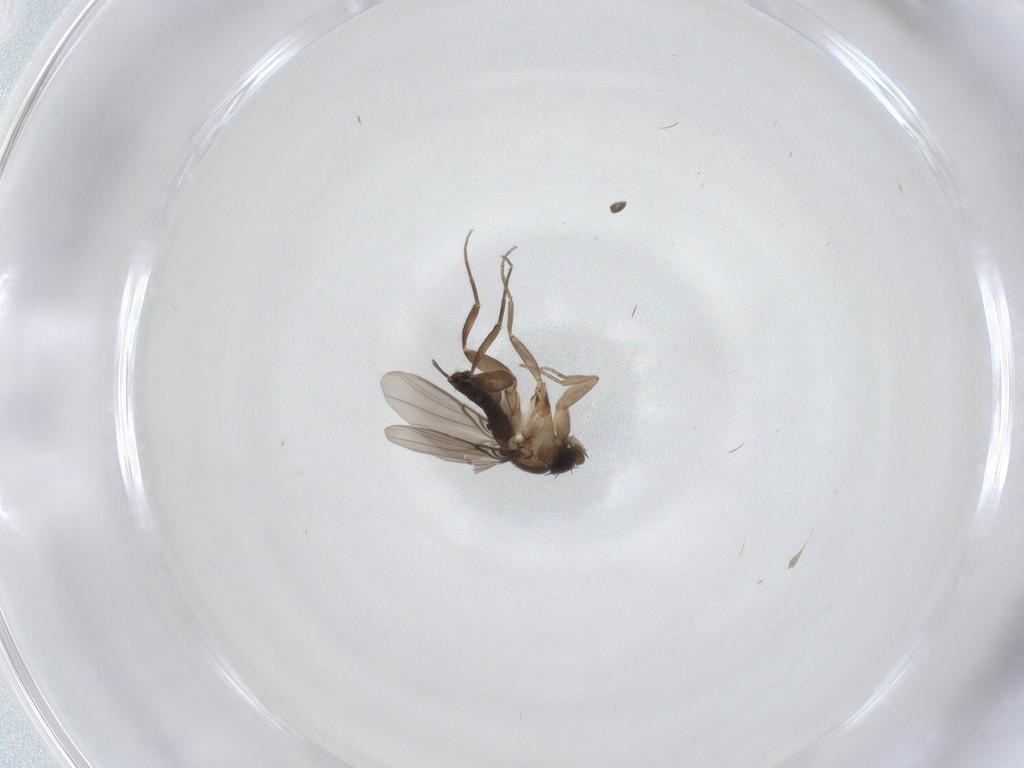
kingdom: Animalia
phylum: Arthropoda
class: Insecta
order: Diptera
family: Phoridae
